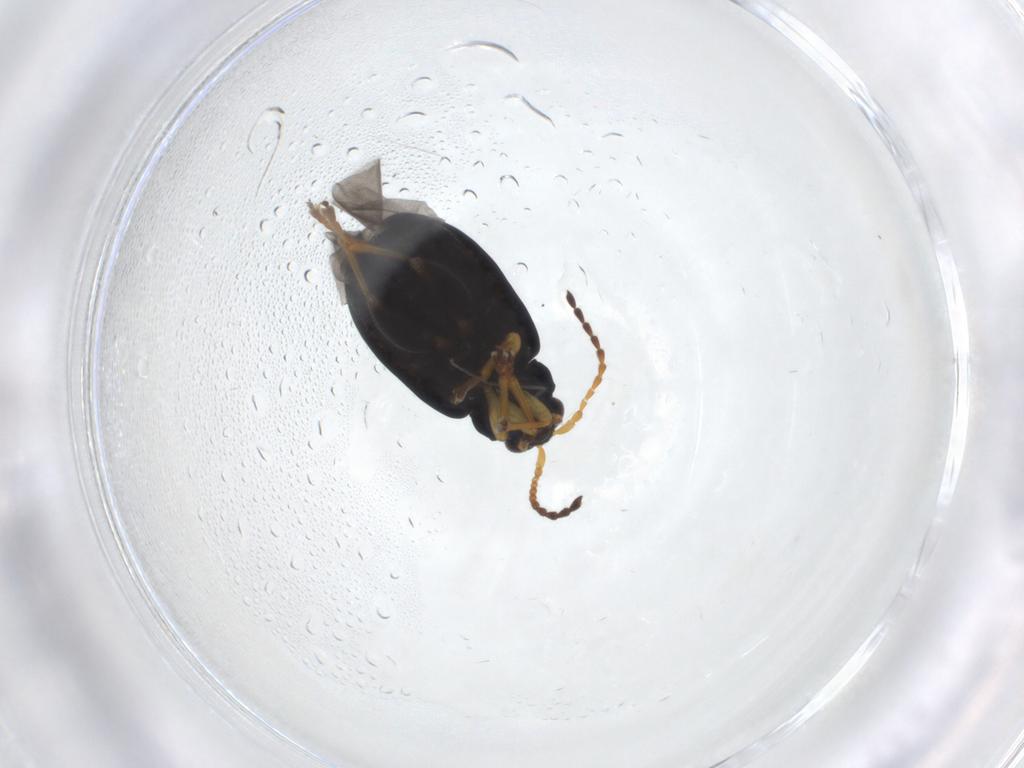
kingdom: Animalia
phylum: Arthropoda
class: Insecta
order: Coleoptera
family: Chrysomelidae
